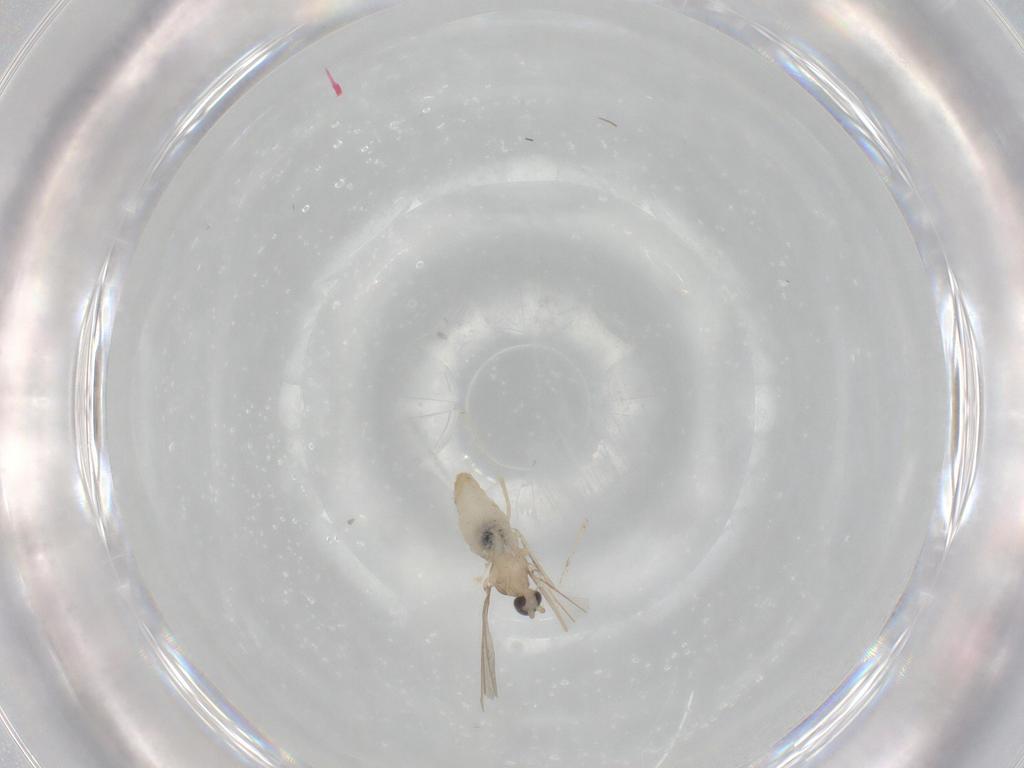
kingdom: Animalia
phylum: Arthropoda
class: Insecta
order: Diptera
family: Cecidomyiidae
